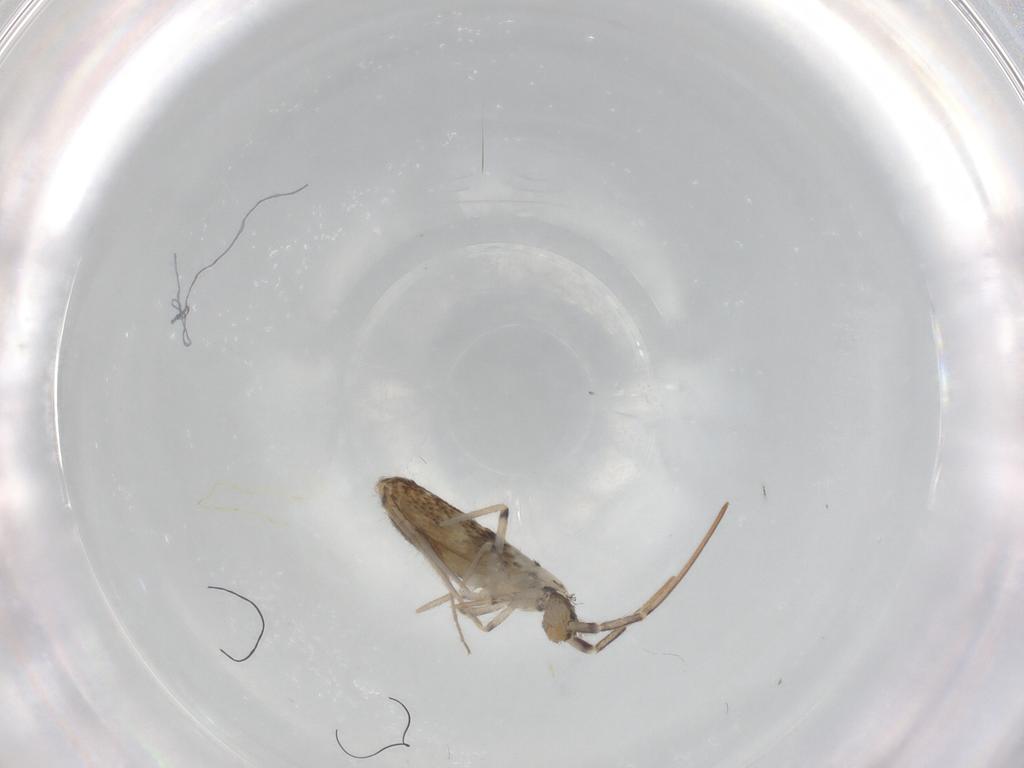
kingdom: Animalia
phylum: Arthropoda
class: Collembola
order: Entomobryomorpha
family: Entomobryidae
